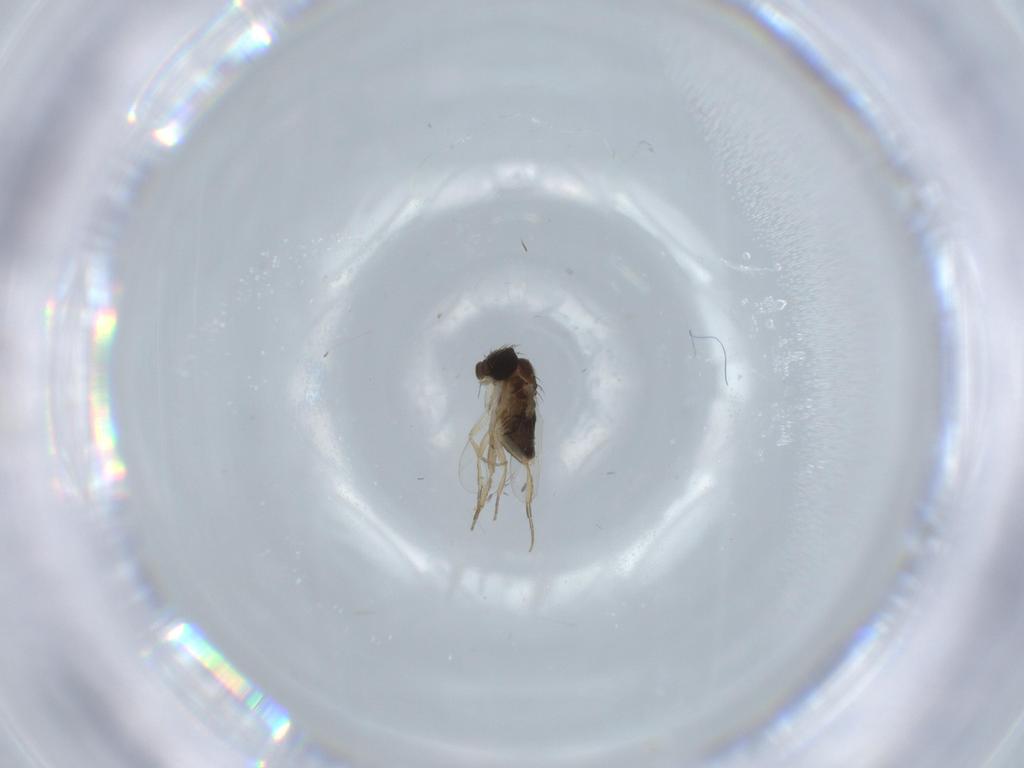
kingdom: Animalia
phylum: Arthropoda
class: Insecta
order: Diptera
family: Phoridae
